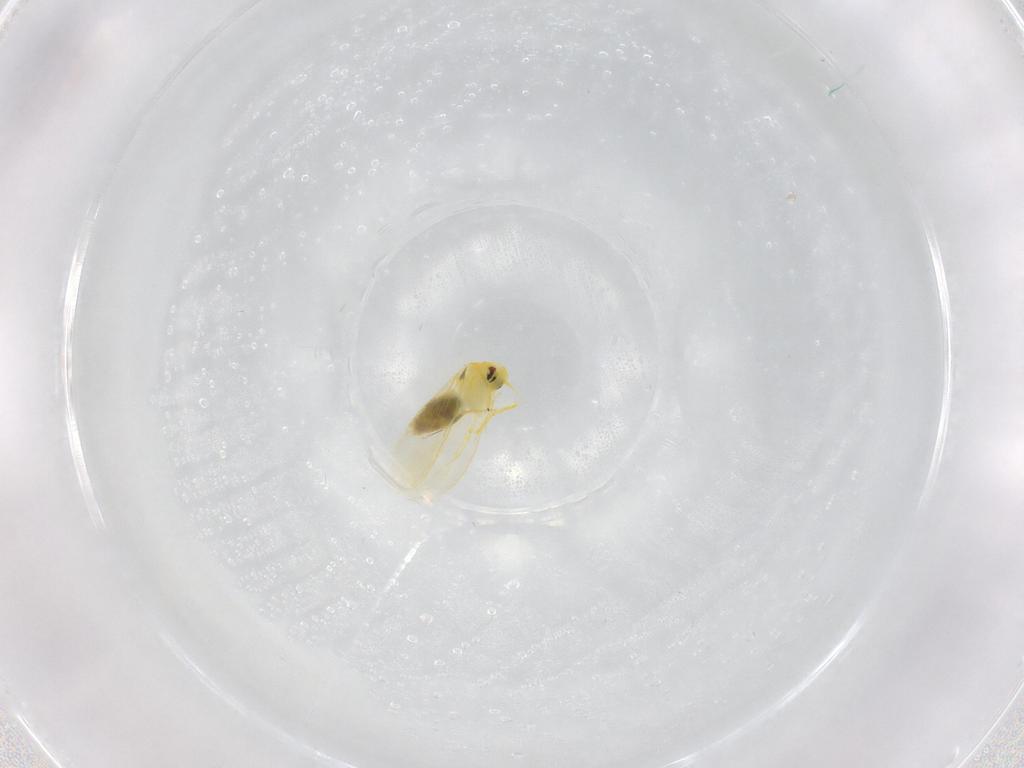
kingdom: Animalia
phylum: Arthropoda
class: Insecta
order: Hemiptera
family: Aleyrodidae
